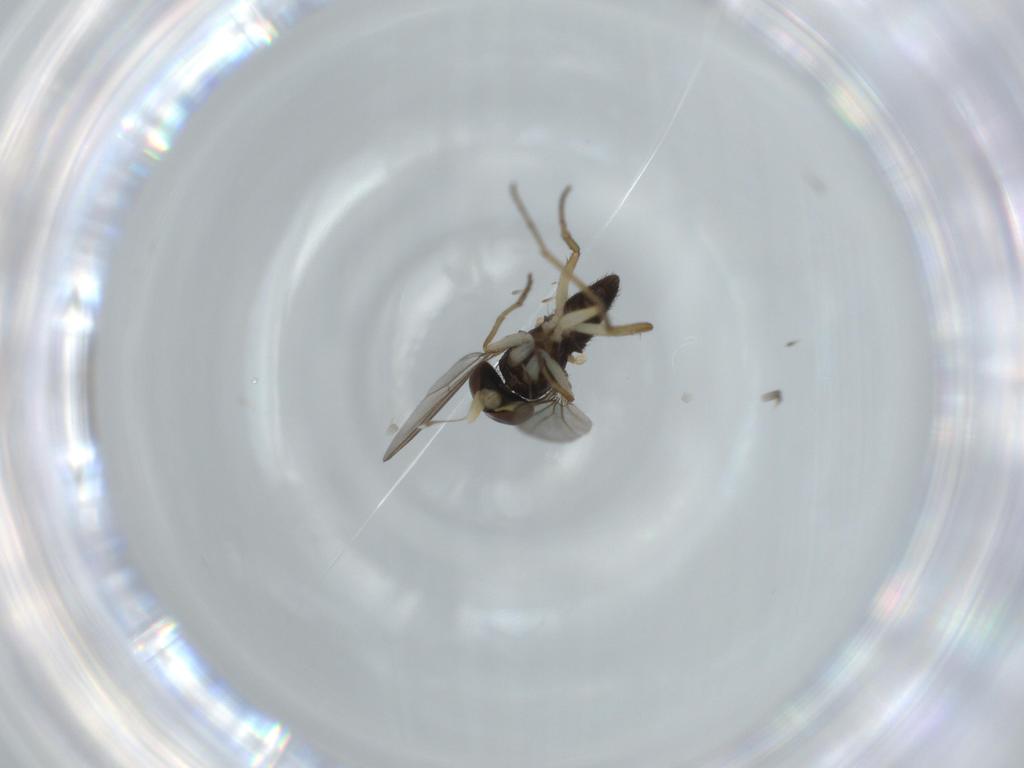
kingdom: Animalia
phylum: Arthropoda
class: Insecta
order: Diptera
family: Dolichopodidae
